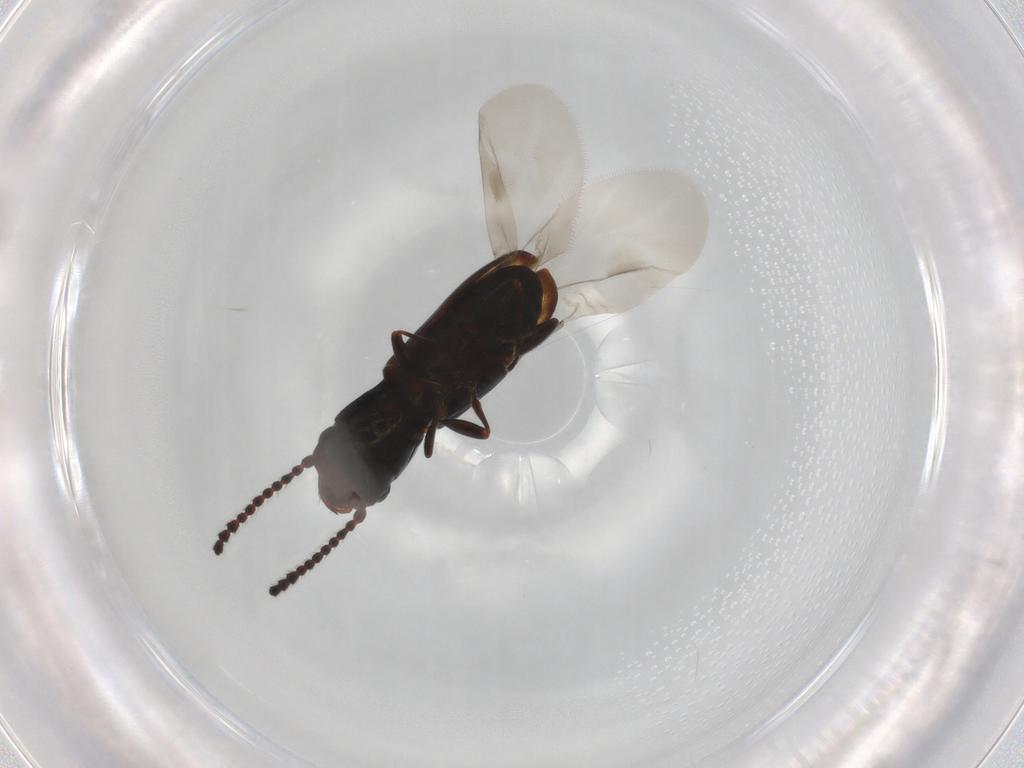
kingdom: Animalia
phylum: Arthropoda
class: Insecta
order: Coleoptera
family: Laemophloeidae
